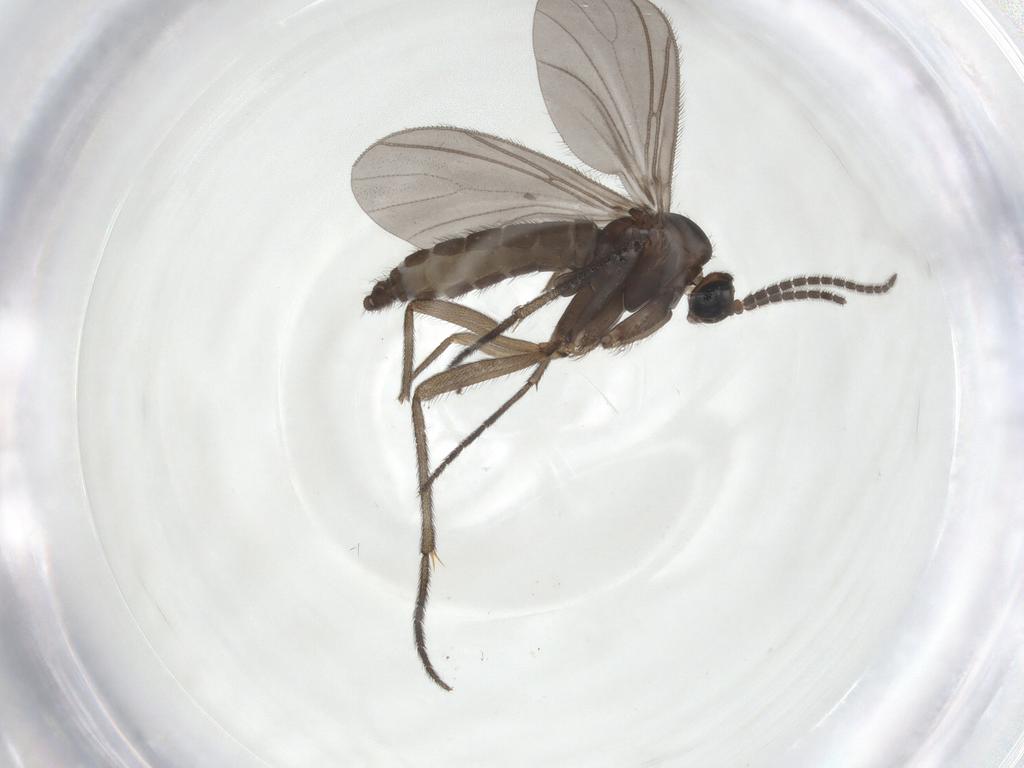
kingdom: Animalia
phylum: Arthropoda
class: Insecta
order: Diptera
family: Sciaridae
